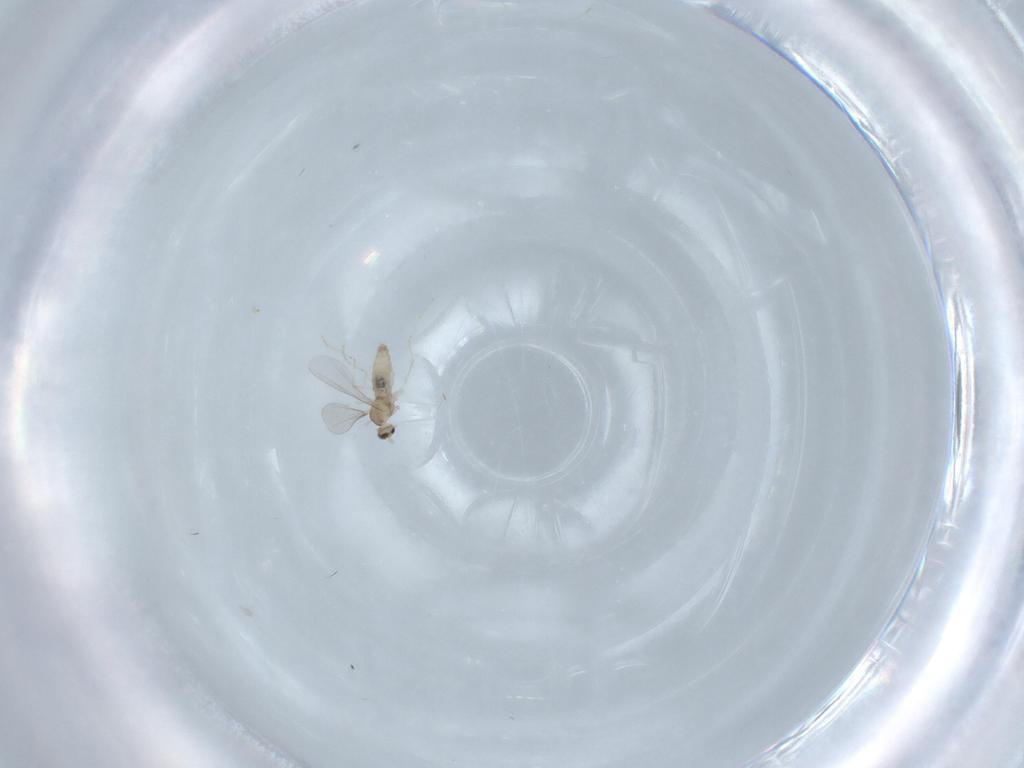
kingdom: Animalia
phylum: Arthropoda
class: Insecta
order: Diptera
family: Cecidomyiidae
